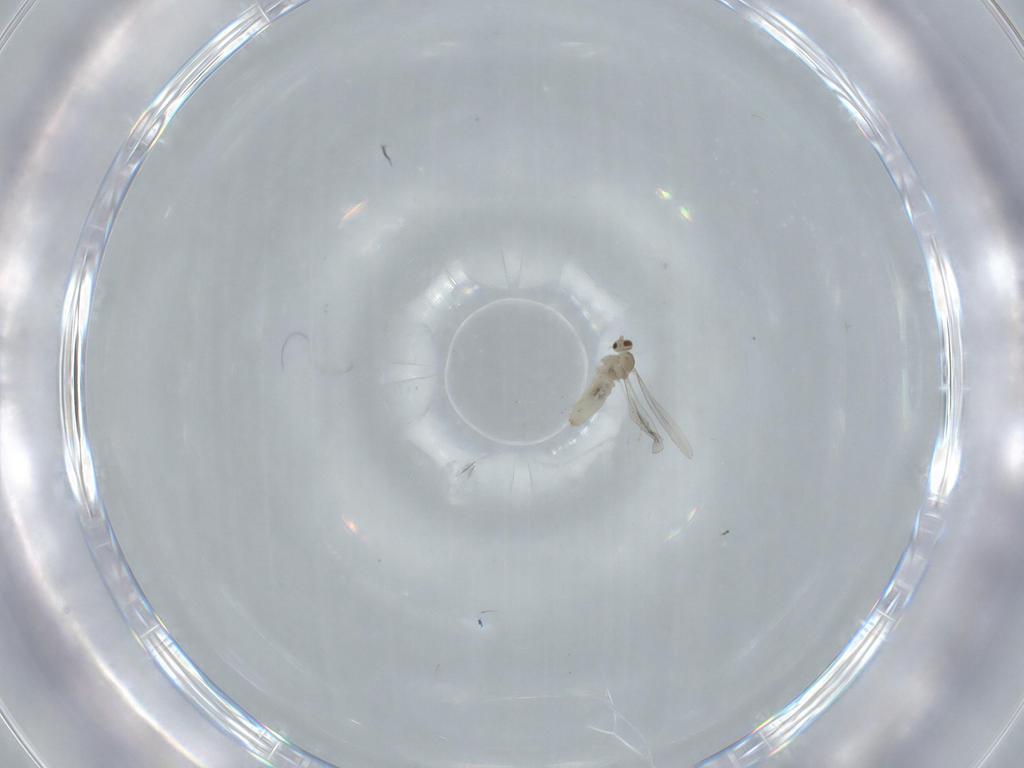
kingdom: Animalia
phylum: Arthropoda
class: Insecta
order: Diptera
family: Cecidomyiidae
